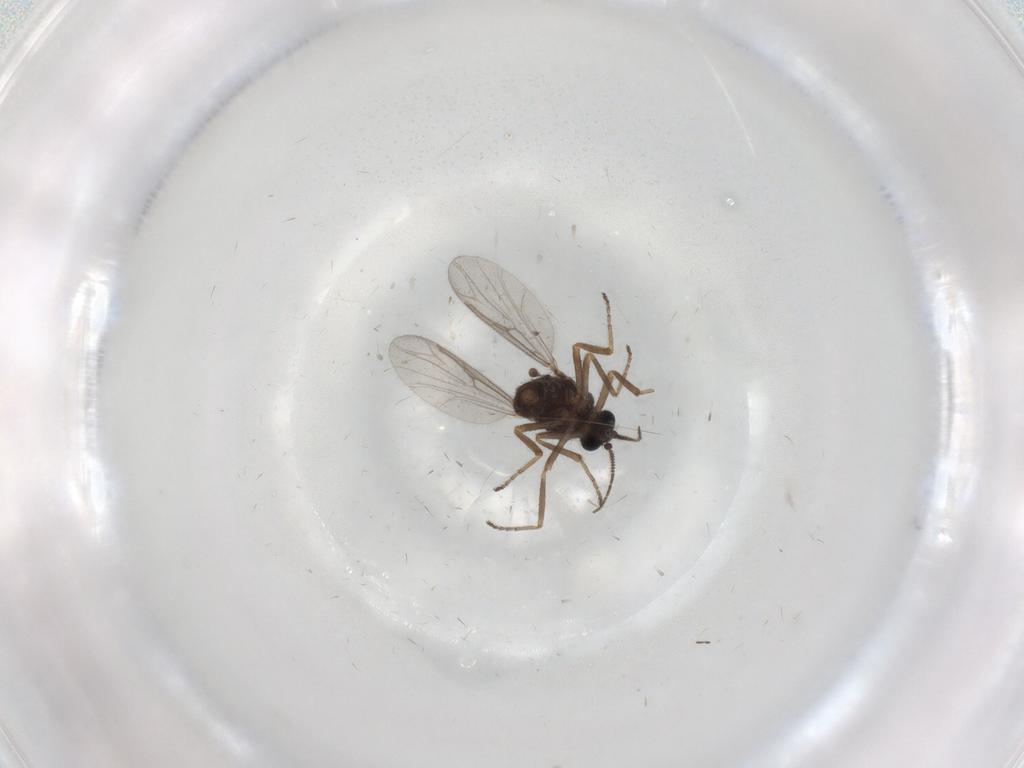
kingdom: Animalia
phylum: Arthropoda
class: Insecta
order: Diptera
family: Ceratopogonidae
